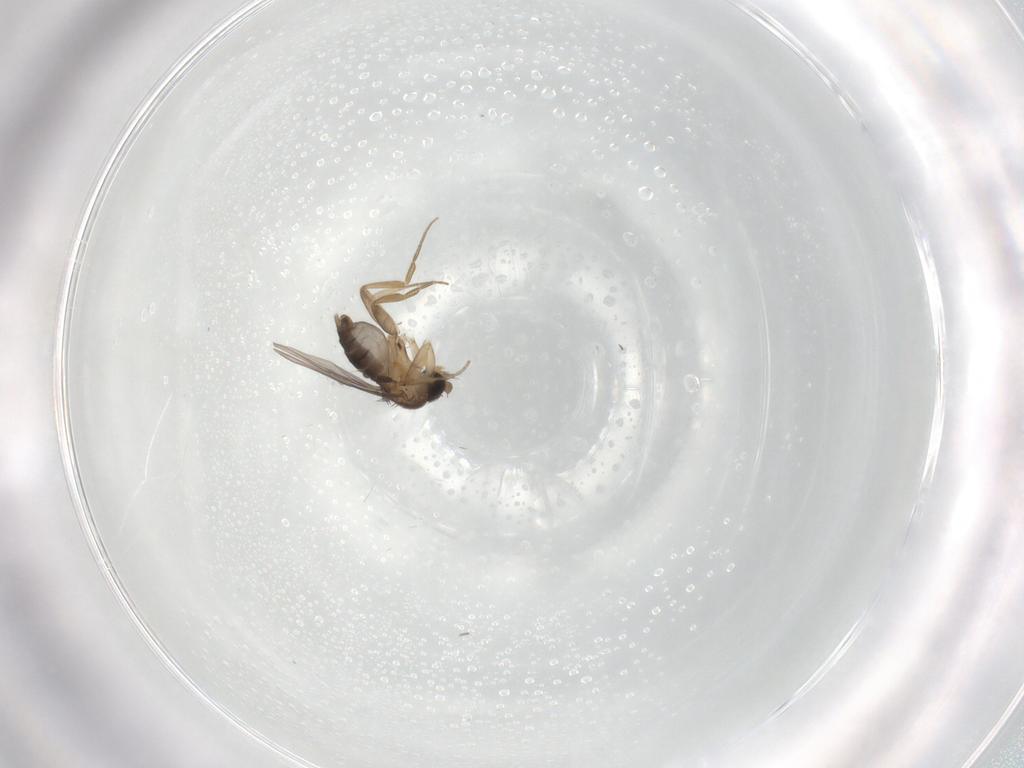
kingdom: Animalia
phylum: Arthropoda
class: Insecta
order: Diptera
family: Phoridae
